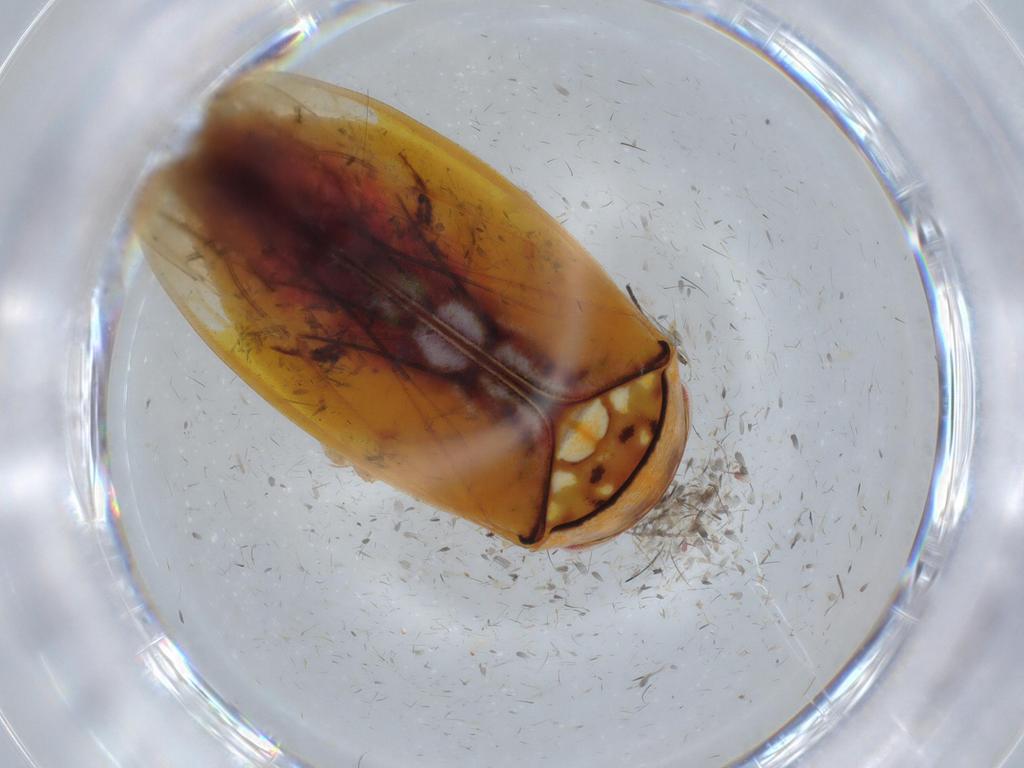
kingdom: Animalia
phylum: Arthropoda
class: Insecta
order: Hemiptera
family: Cicadellidae
